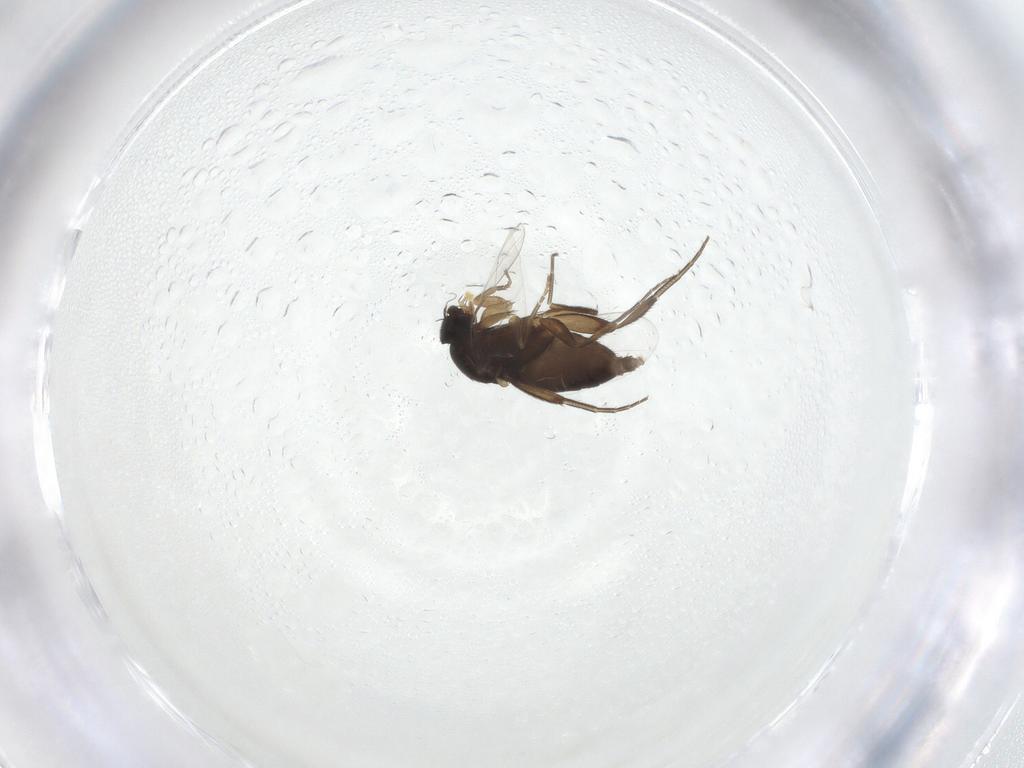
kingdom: Animalia
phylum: Arthropoda
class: Insecta
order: Diptera
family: Phoridae
